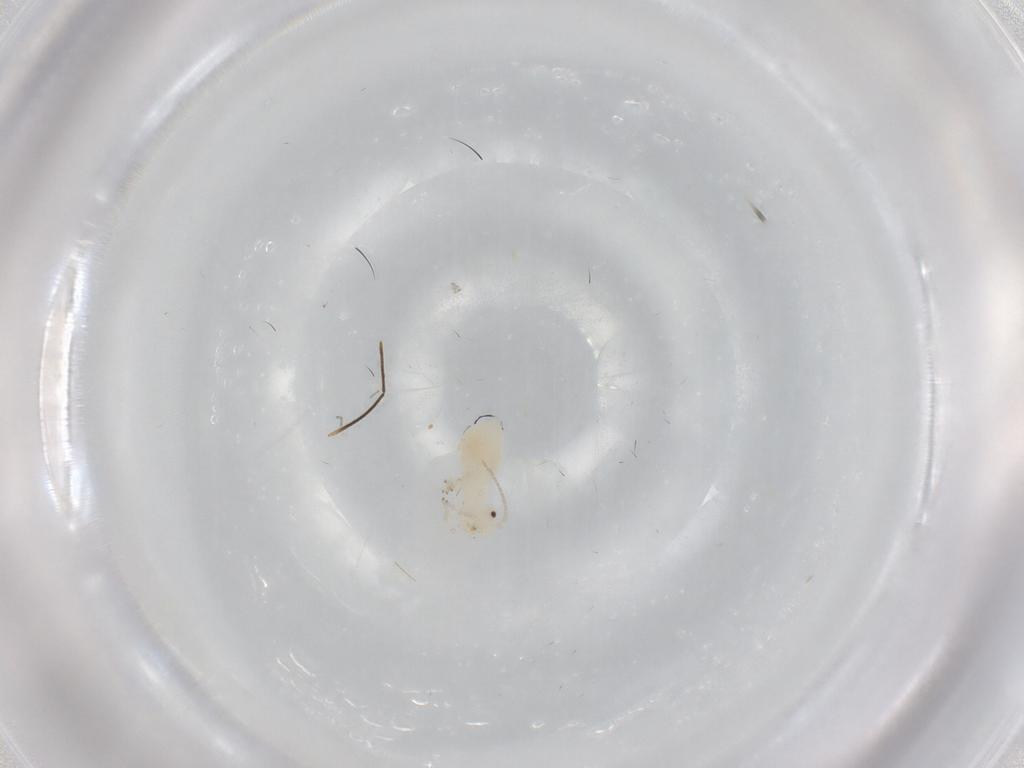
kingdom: Animalia
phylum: Arthropoda
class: Insecta
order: Psocodea
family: Caeciliusidae
